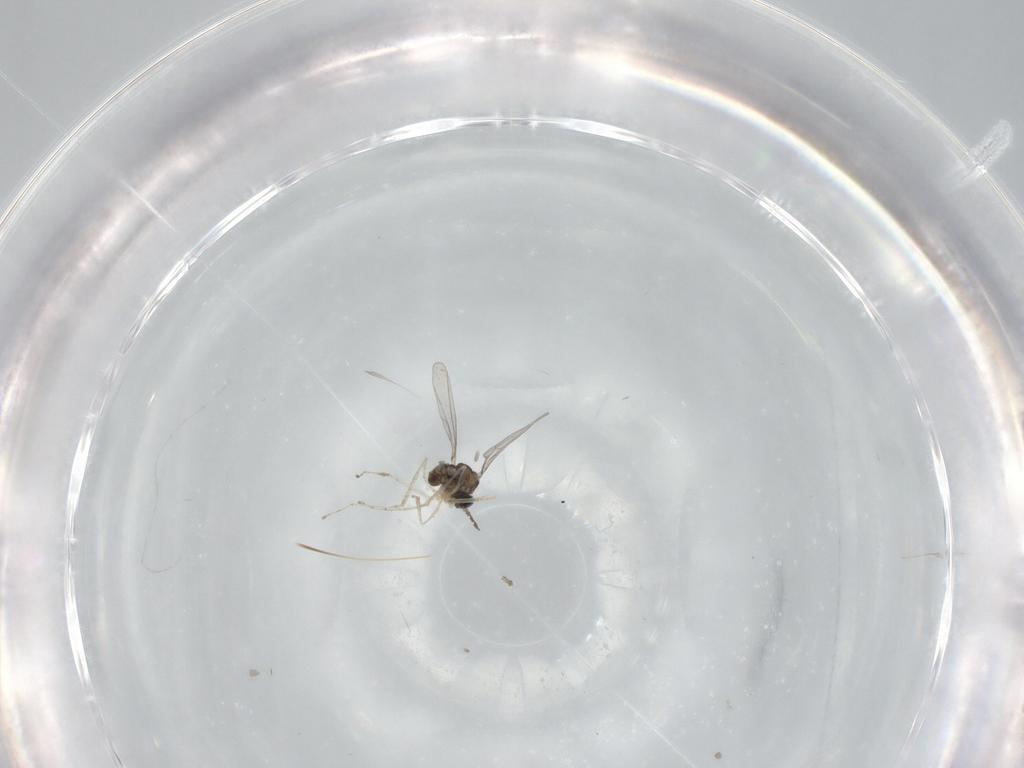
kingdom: Animalia
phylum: Arthropoda
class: Insecta
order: Diptera
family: Cecidomyiidae
